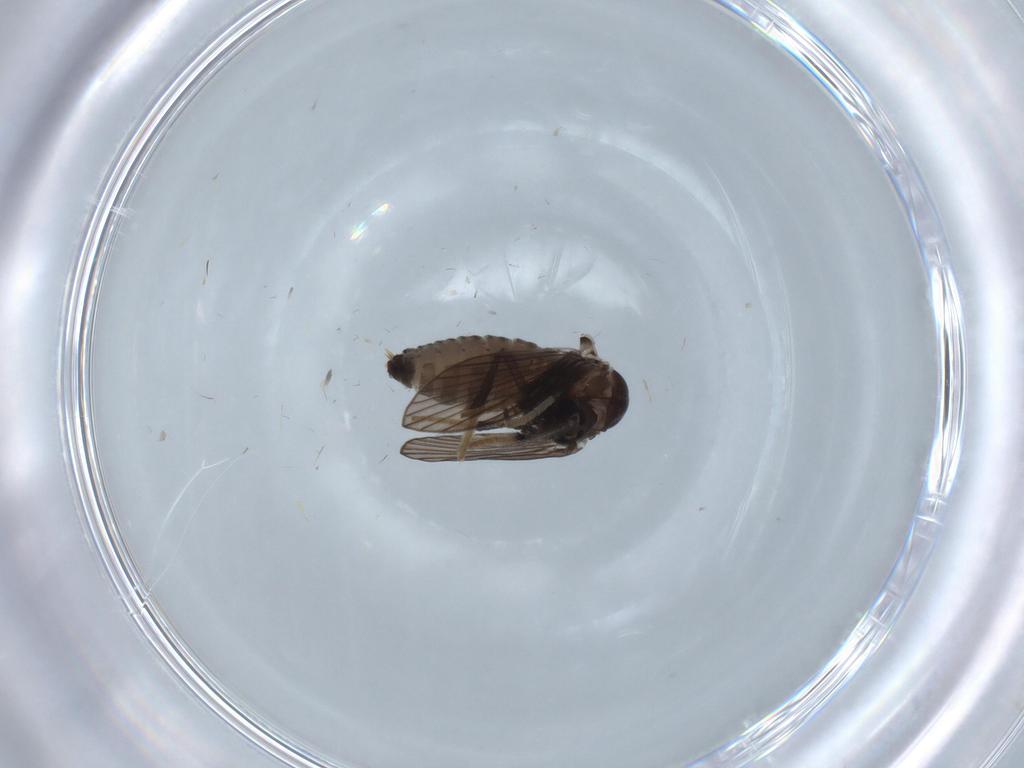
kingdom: Animalia
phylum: Arthropoda
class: Insecta
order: Diptera
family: Psychodidae
